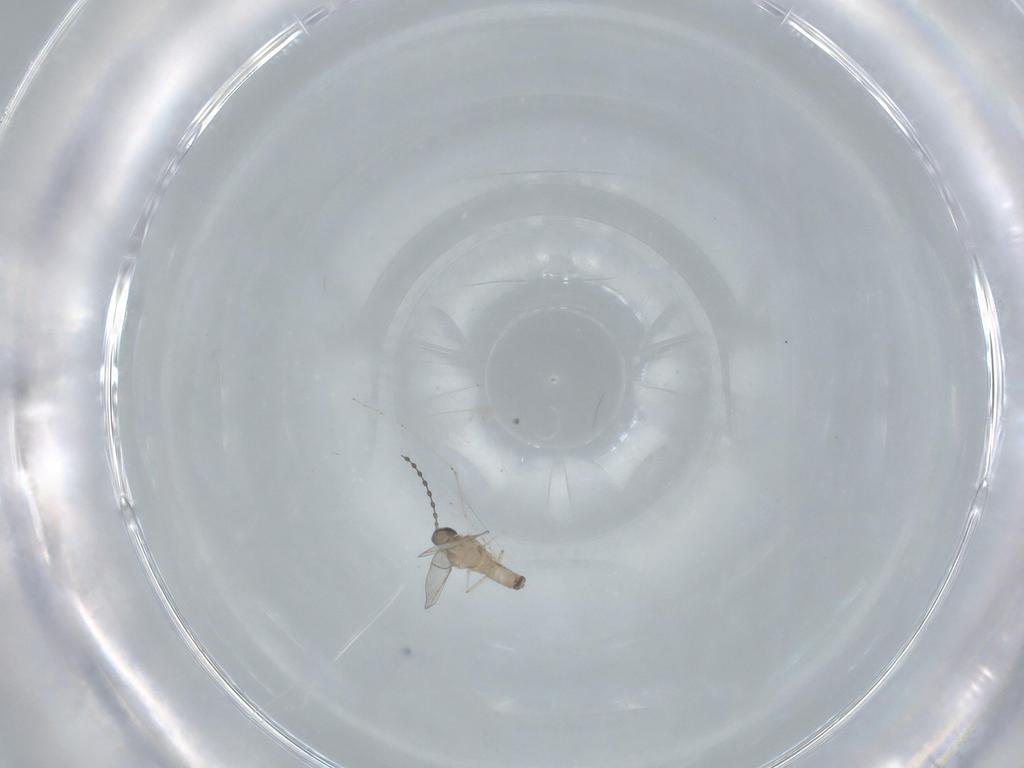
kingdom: Animalia
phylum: Arthropoda
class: Insecta
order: Diptera
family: Cecidomyiidae
